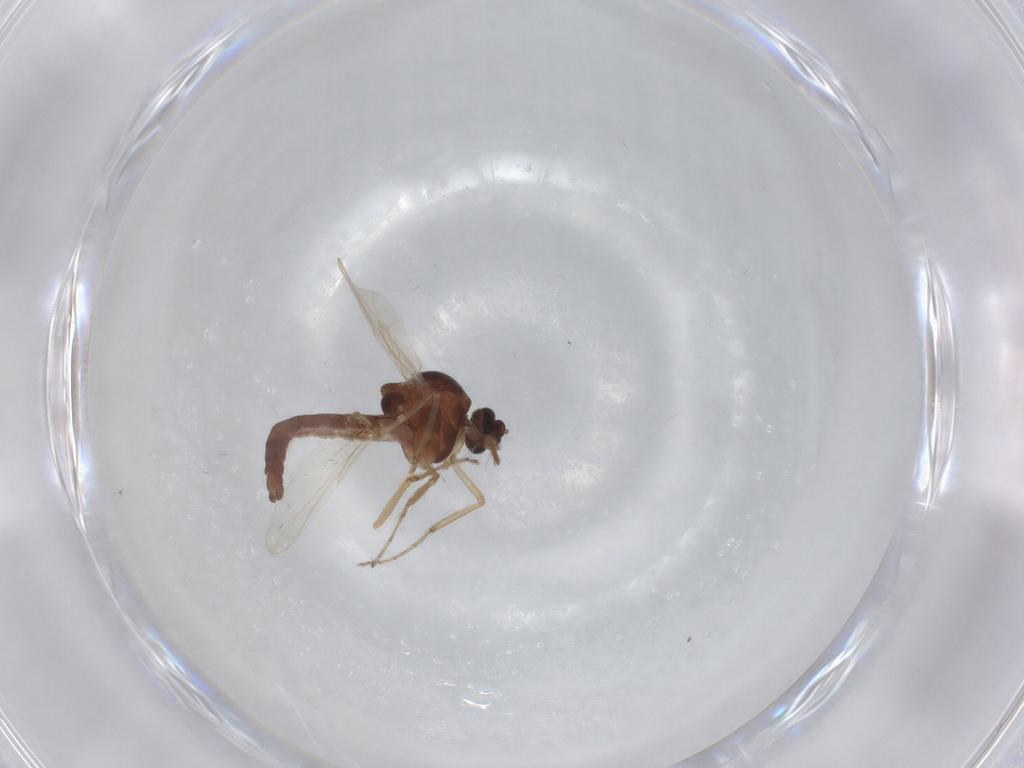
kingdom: Animalia
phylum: Arthropoda
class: Insecta
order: Diptera
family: Ceratopogonidae
